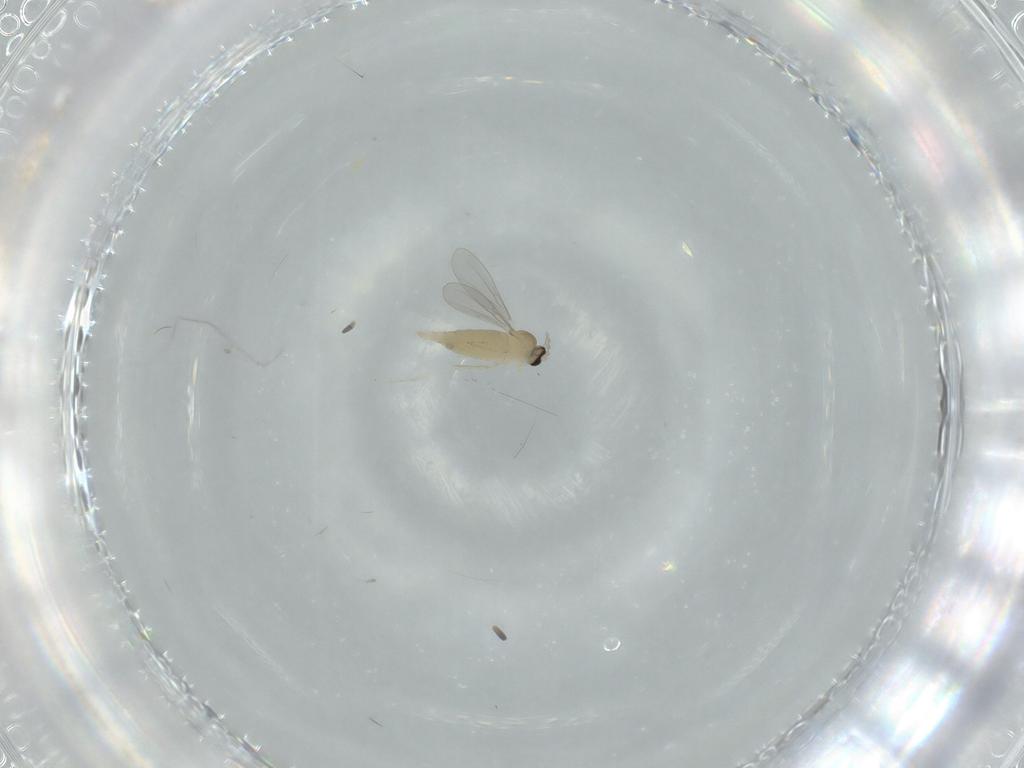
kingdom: Animalia
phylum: Arthropoda
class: Insecta
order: Diptera
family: Cecidomyiidae
